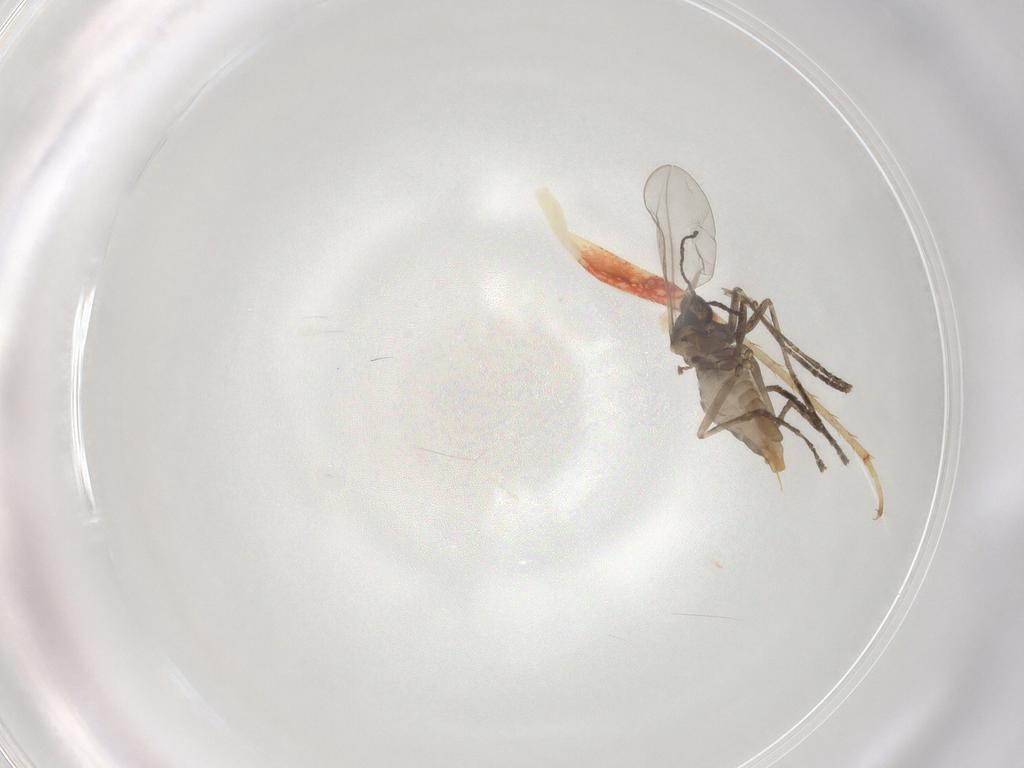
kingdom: Animalia
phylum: Arthropoda
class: Insecta
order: Diptera
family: Cecidomyiidae
